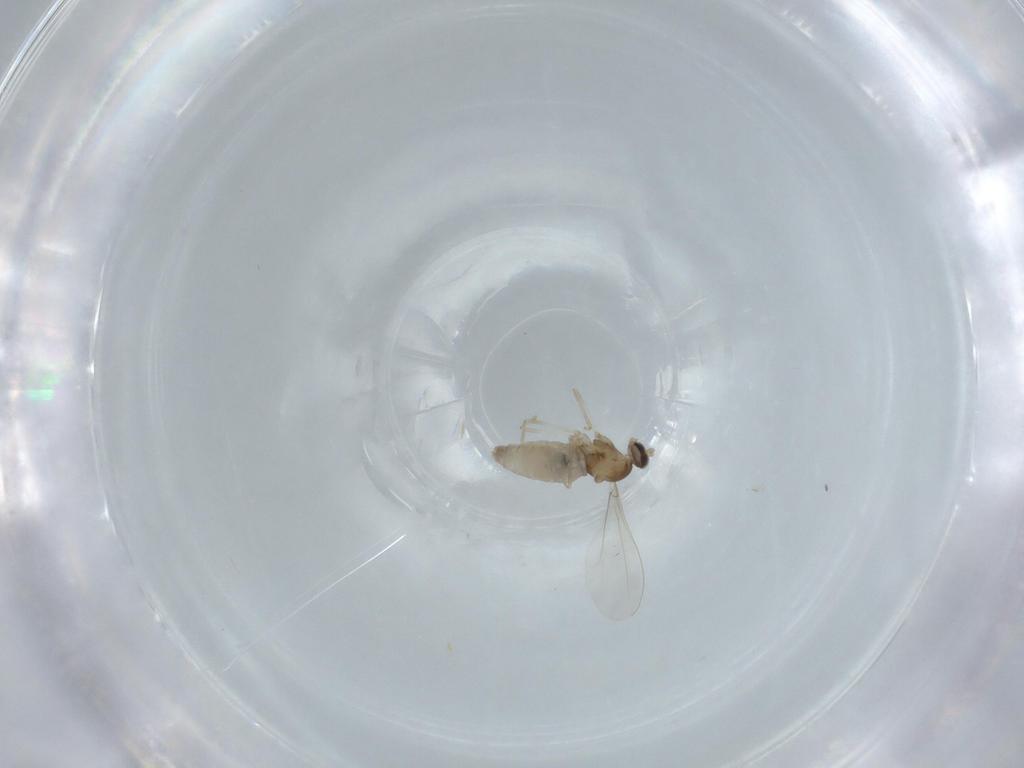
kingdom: Animalia
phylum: Arthropoda
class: Insecta
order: Diptera
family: Cecidomyiidae
